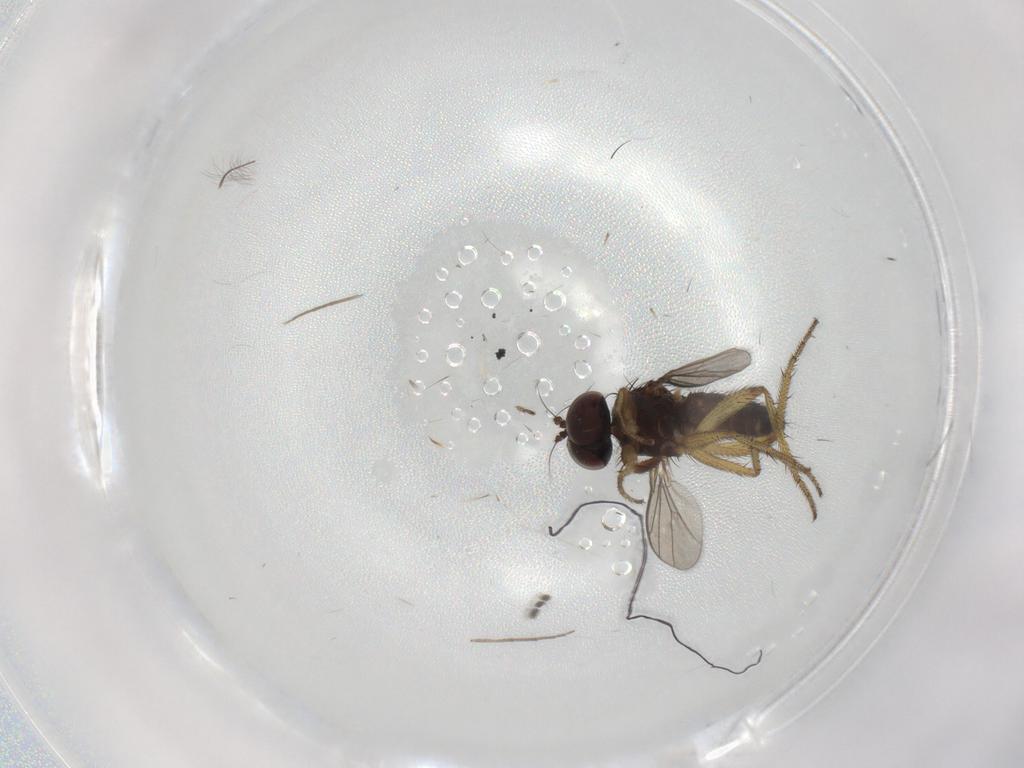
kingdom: Animalia
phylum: Arthropoda
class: Insecta
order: Diptera
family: Chironomidae
